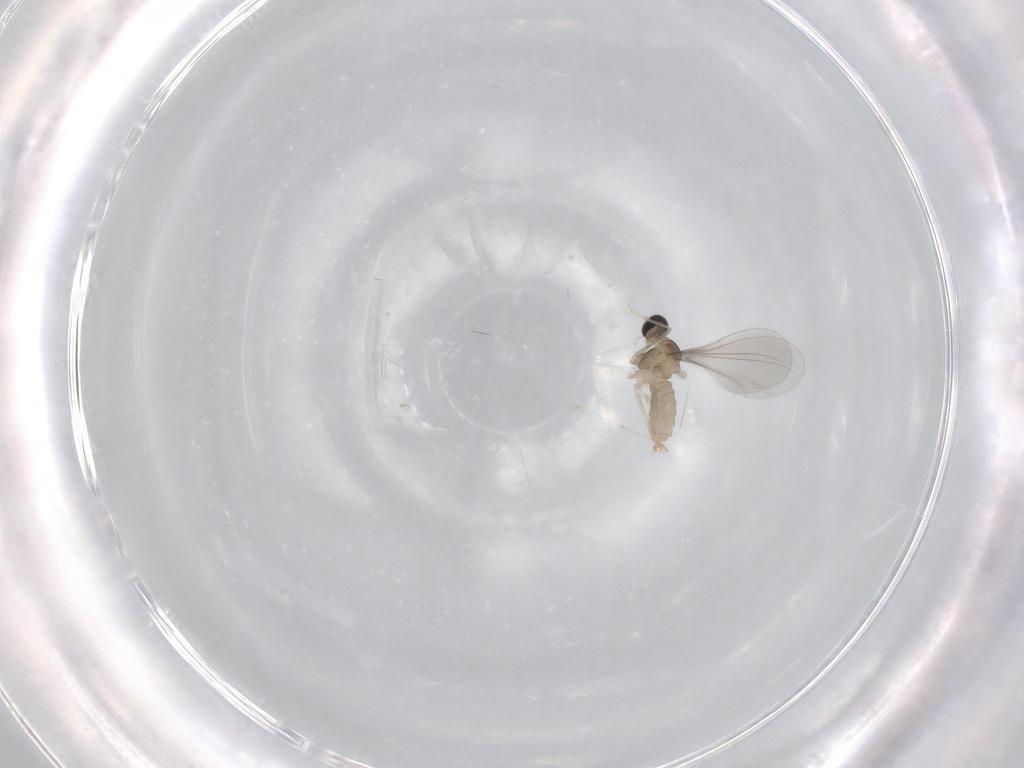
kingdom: Animalia
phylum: Arthropoda
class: Insecta
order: Diptera
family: Cecidomyiidae
